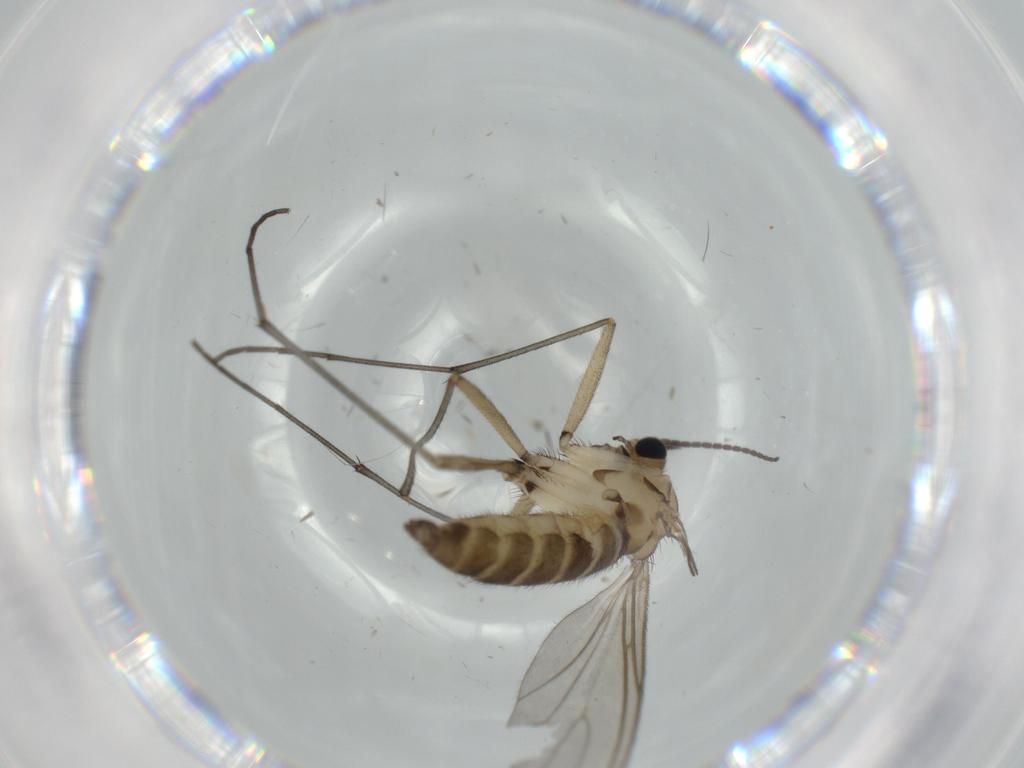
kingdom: Animalia
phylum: Arthropoda
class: Insecta
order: Diptera
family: Sciaridae
